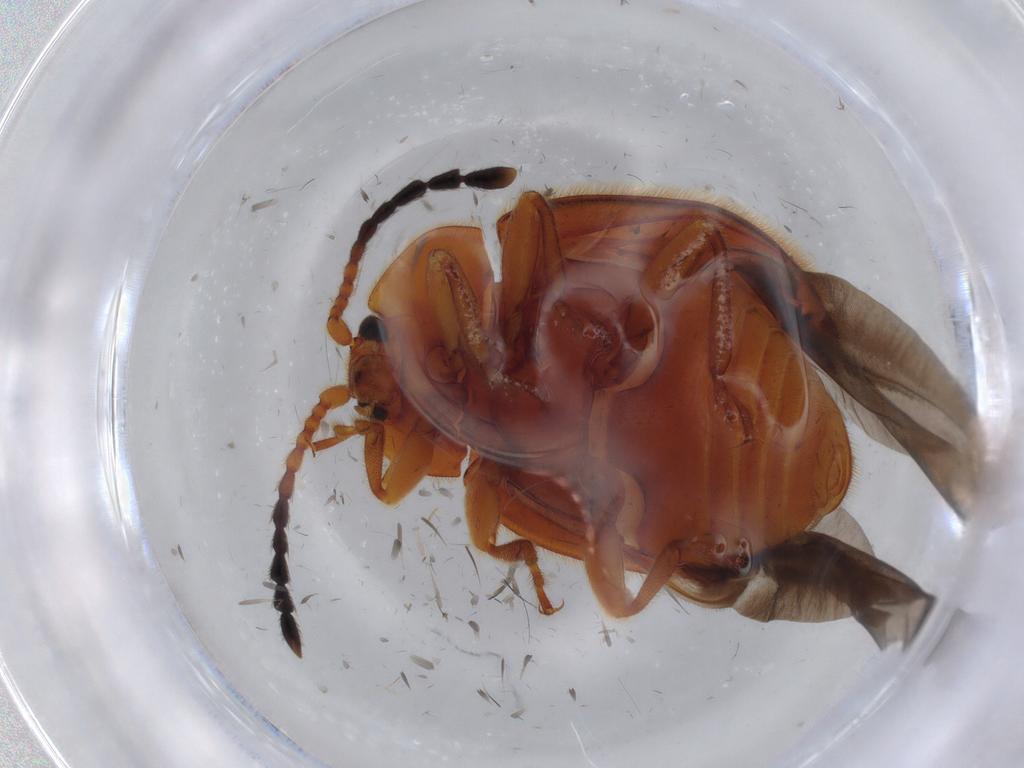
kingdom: Animalia
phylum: Arthropoda
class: Insecta
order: Coleoptera
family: Endomychidae
